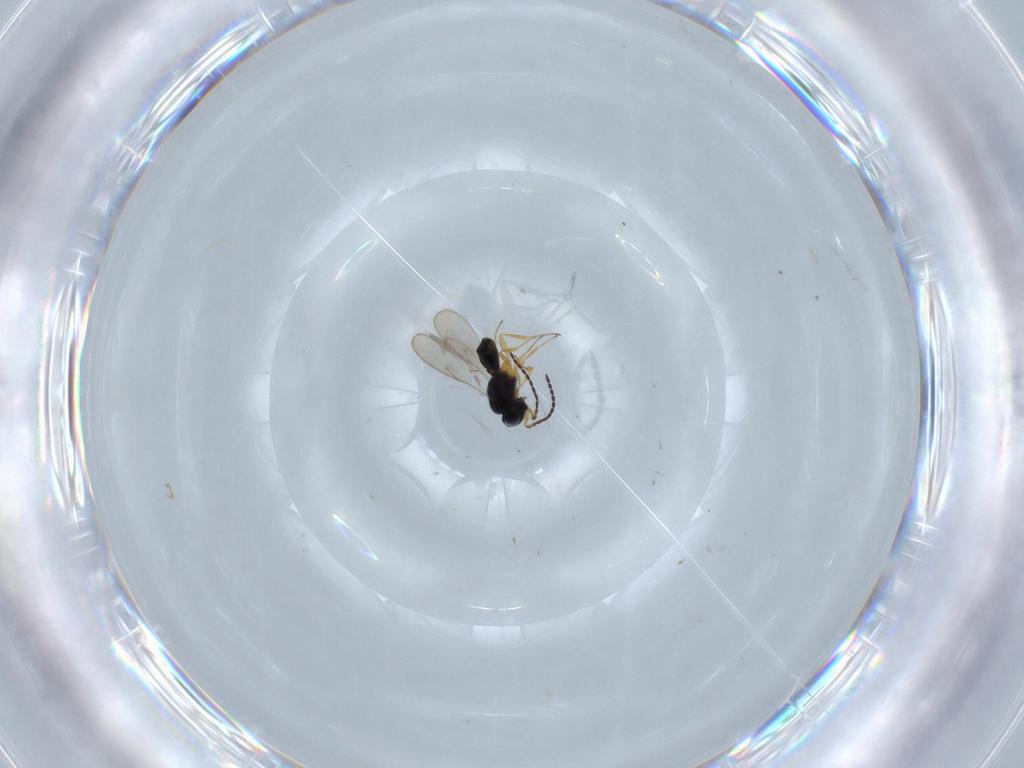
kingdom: Animalia
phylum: Arthropoda
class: Insecta
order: Hymenoptera
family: Scelionidae
